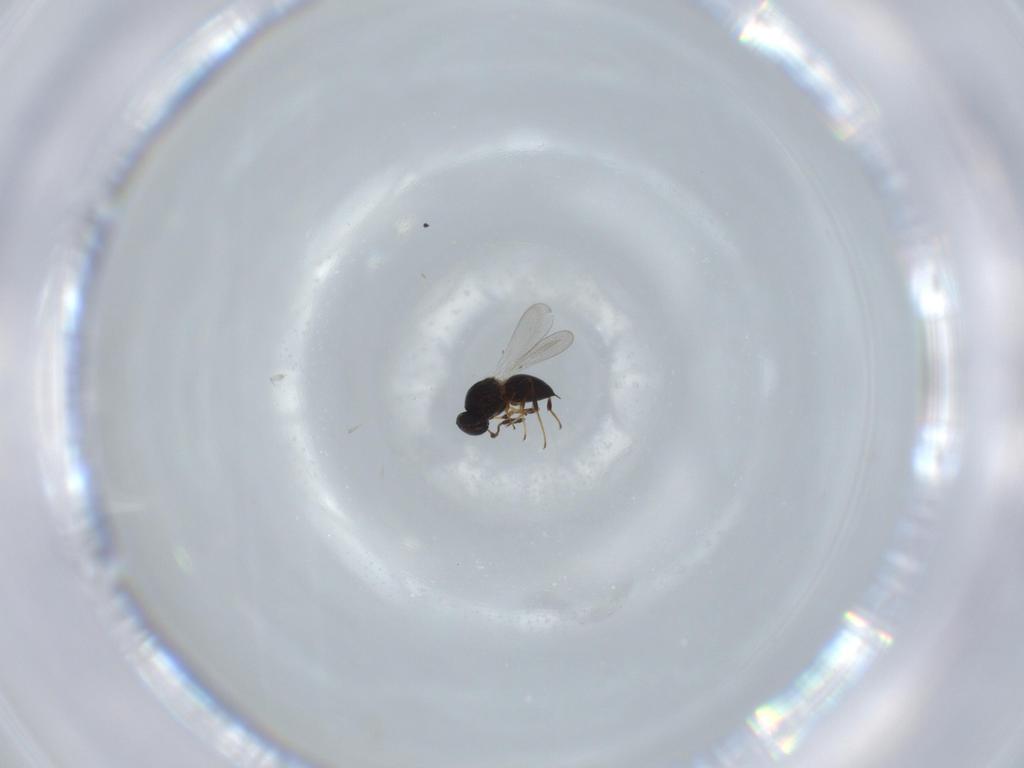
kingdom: Animalia
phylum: Arthropoda
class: Insecta
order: Hymenoptera
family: Platygastridae
